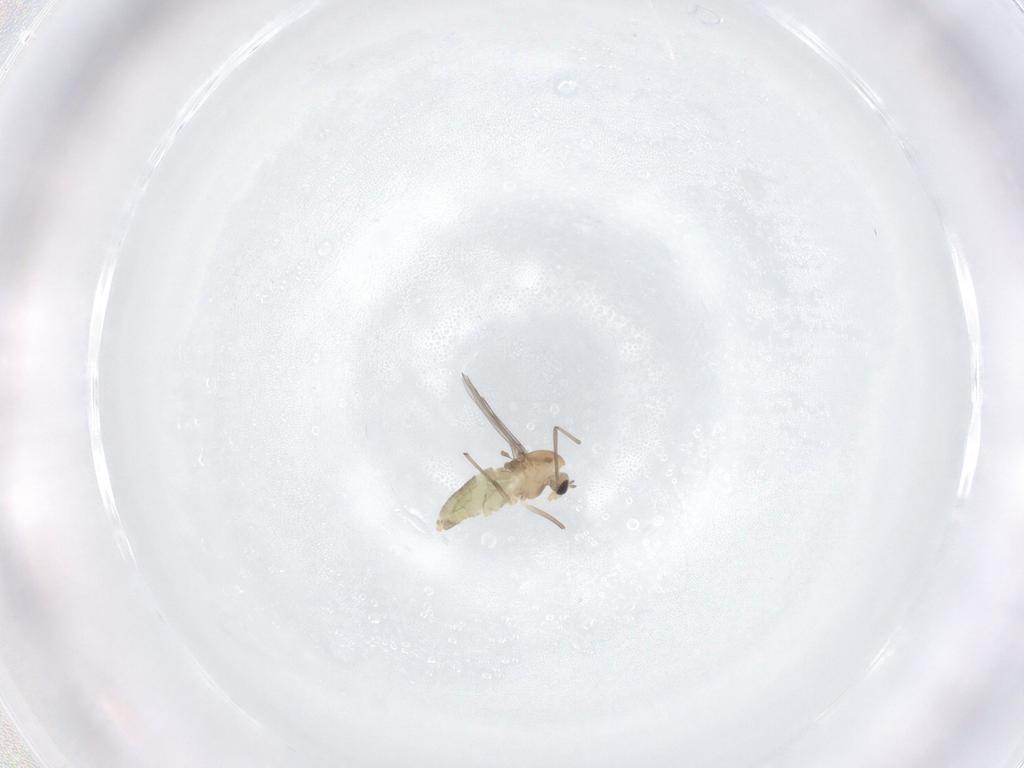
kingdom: Animalia
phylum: Arthropoda
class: Insecta
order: Diptera
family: Chironomidae
